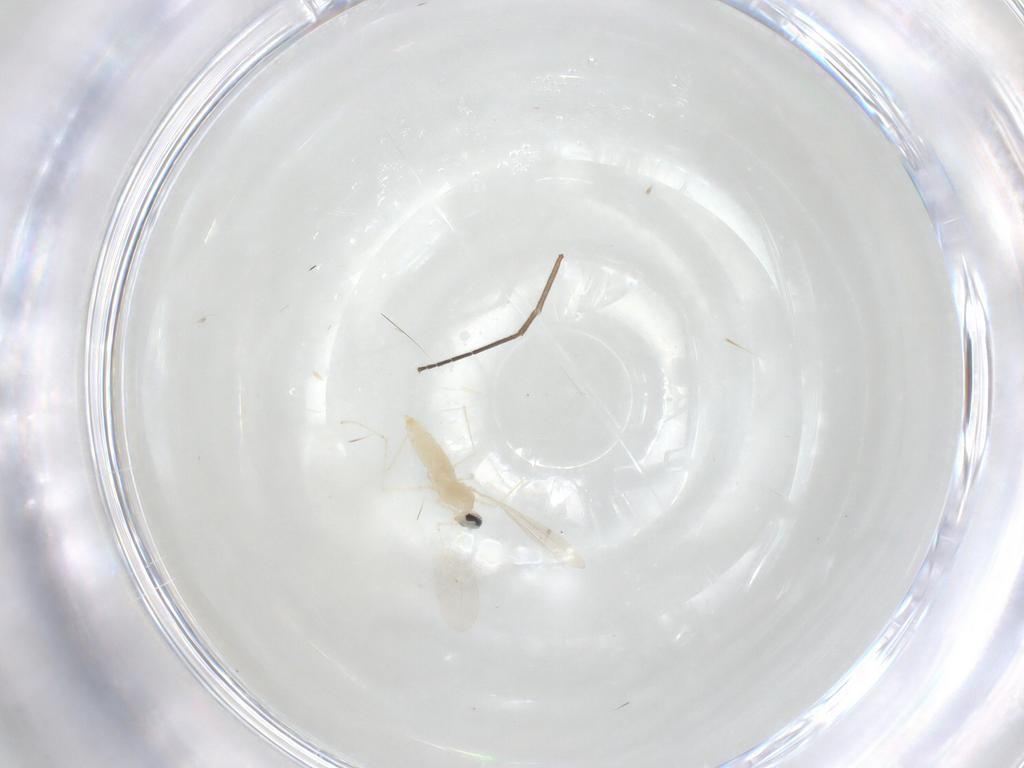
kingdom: Animalia
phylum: Arthropoda
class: Insecta
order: Diptera
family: Cecidomyiidae
